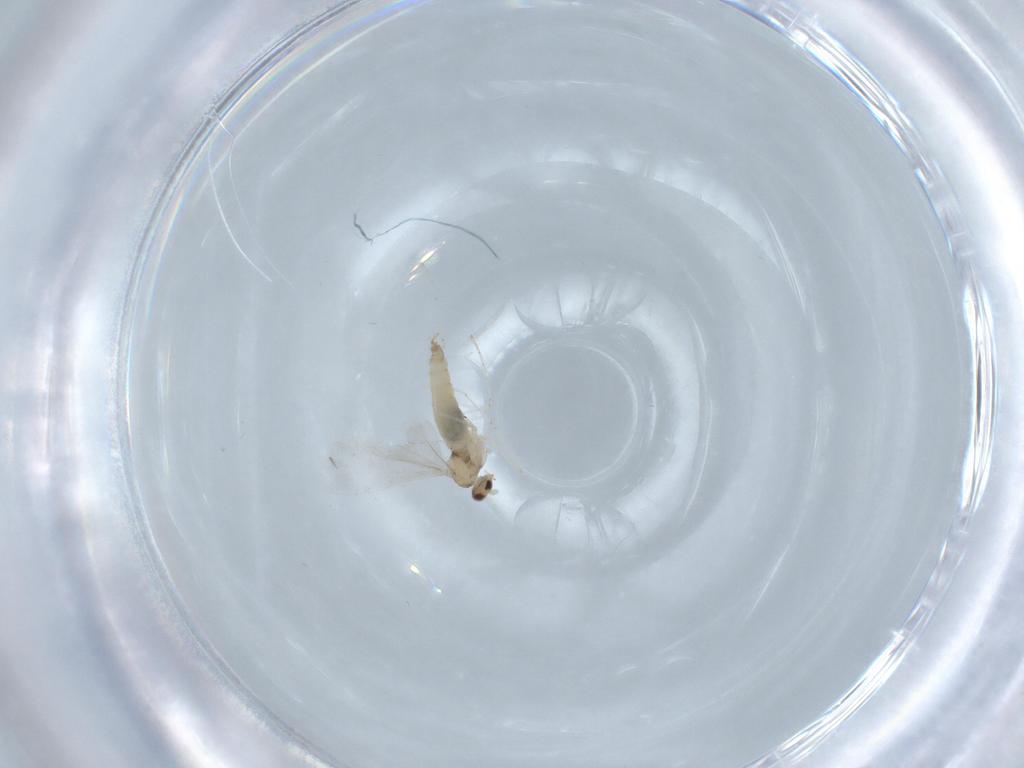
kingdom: Animalia
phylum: Arthropoda
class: Insecta
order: Diptera
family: Cecidomyiidae
